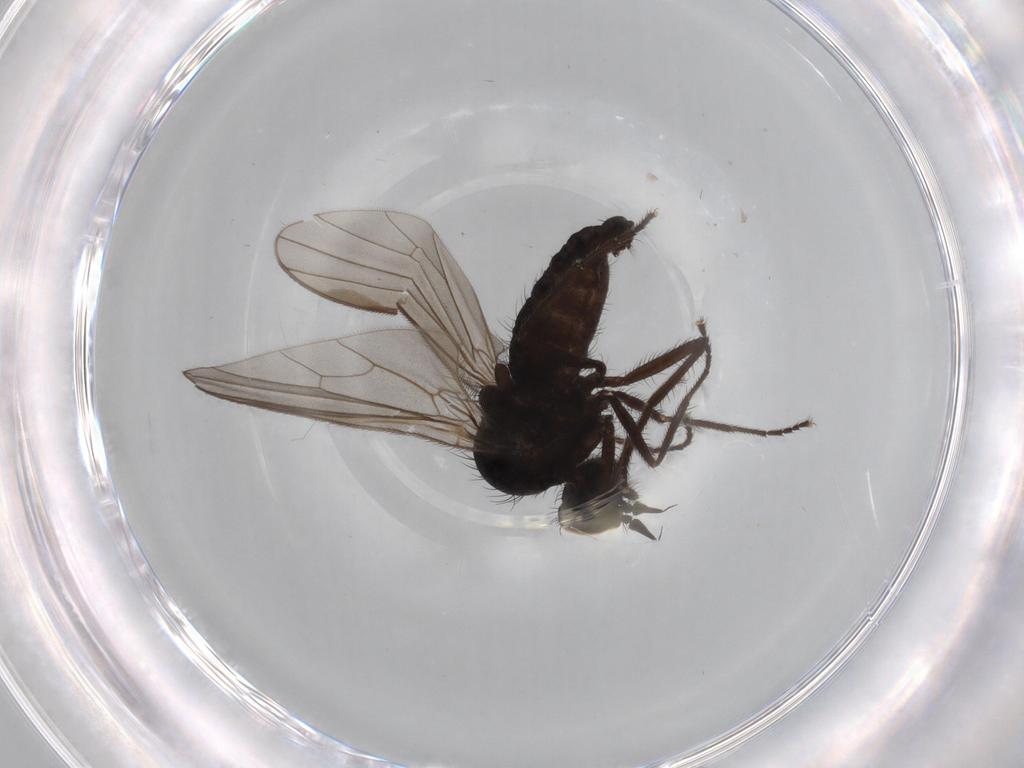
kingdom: Animalia
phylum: Arthropoda
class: Insecta
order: Diptera
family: Dolichopodidae
